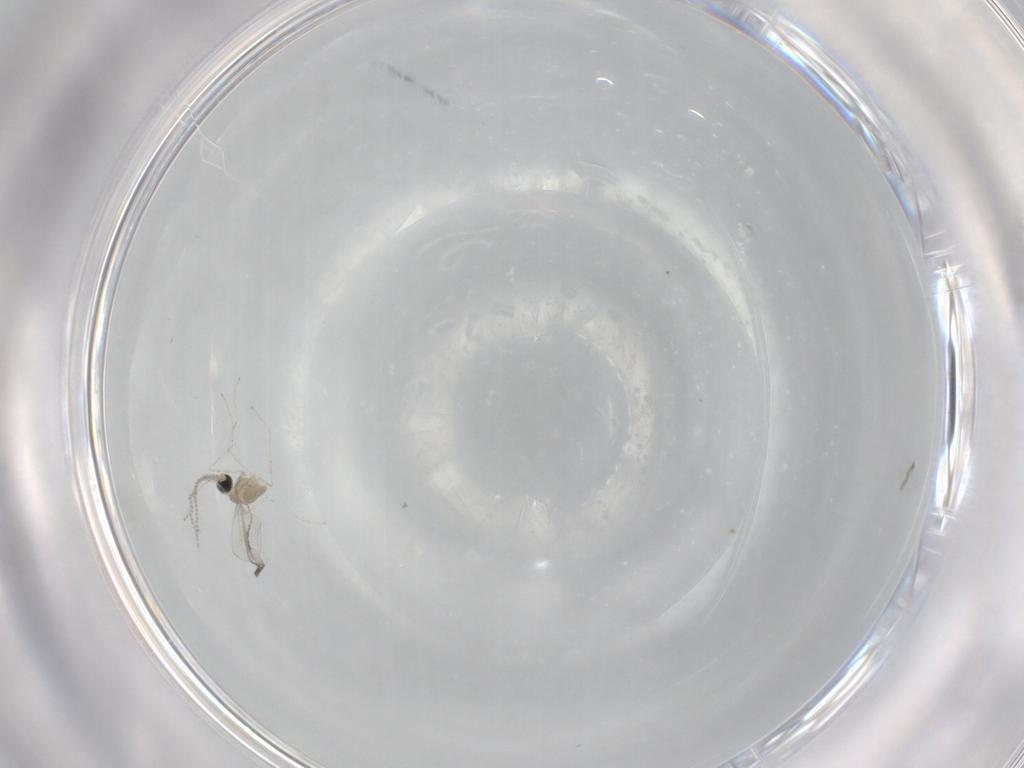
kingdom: Animalia
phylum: Arthropoda
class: Insecta
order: Diptera
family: Cecidomyiidae
